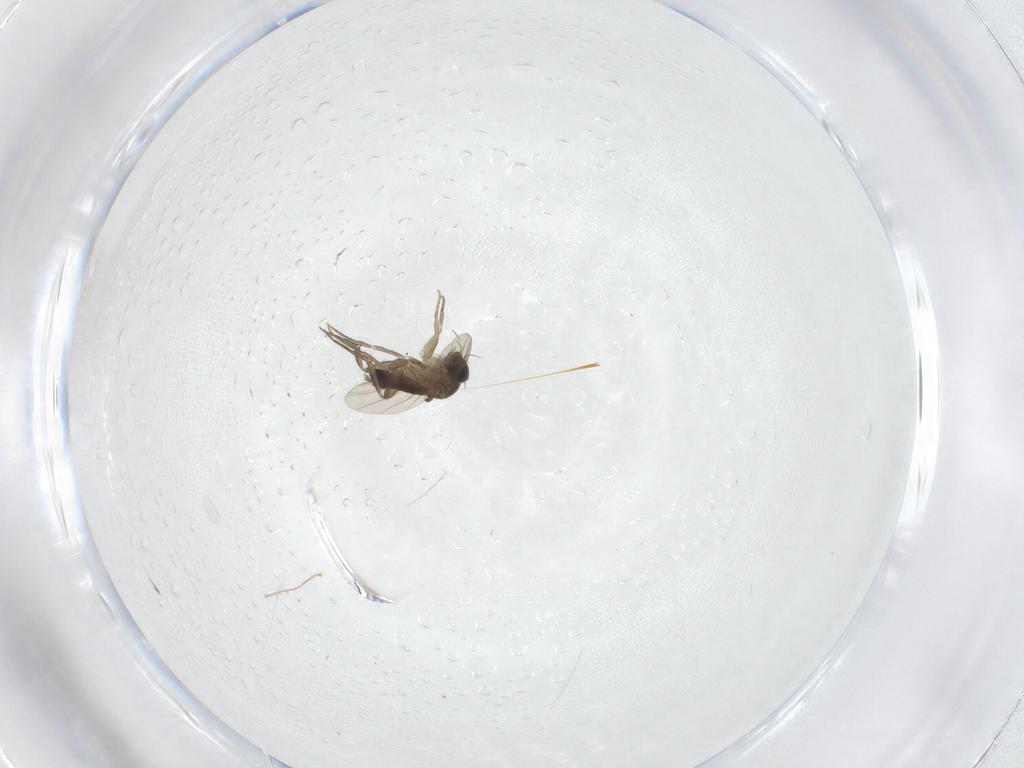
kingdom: Animalia
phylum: Arthropoda
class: Insecta
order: Diptera
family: Phoridae
